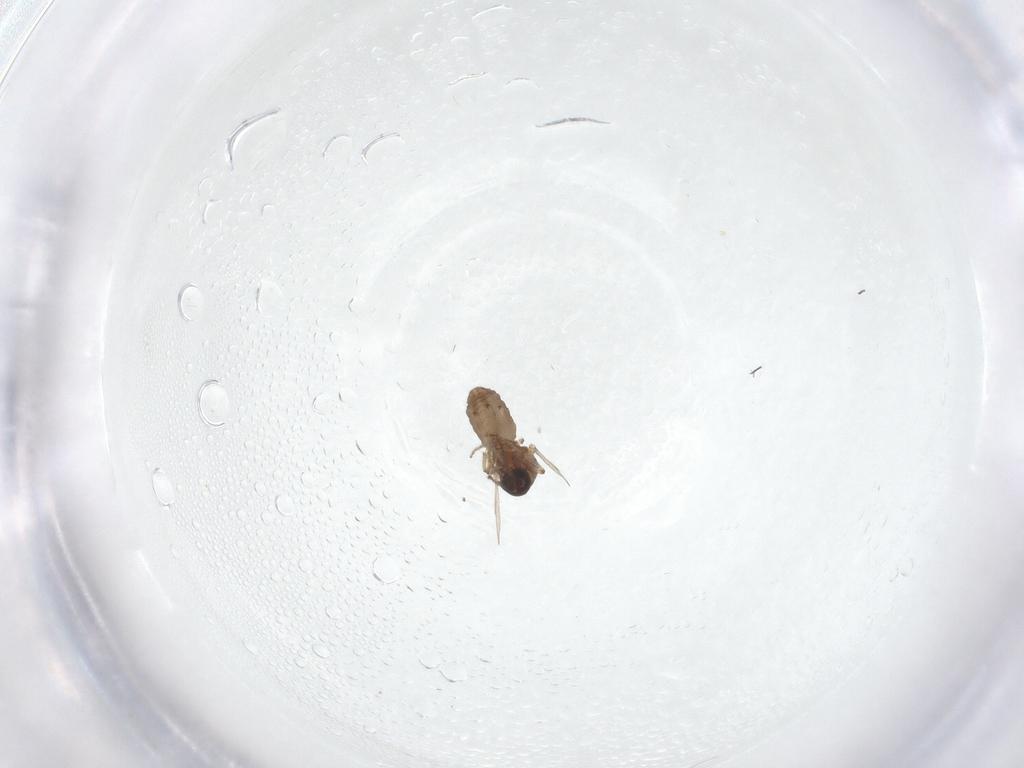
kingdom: Animalia
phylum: Arthropoda
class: Insecta
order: Diptera
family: Ceratopogonidae
